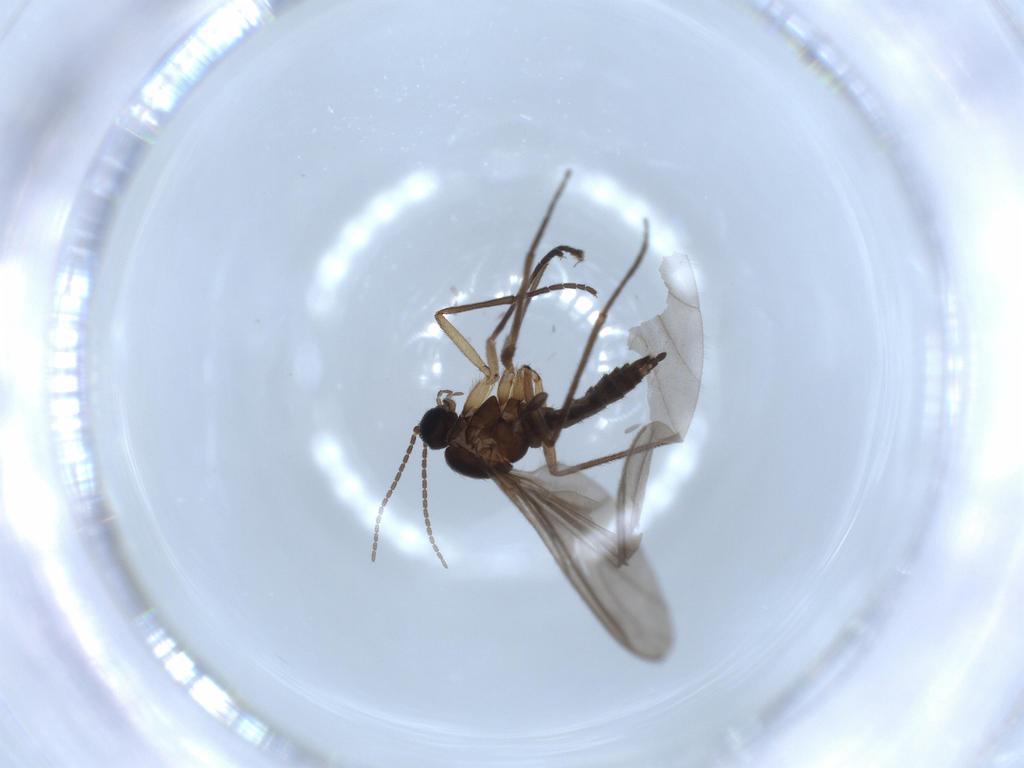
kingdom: Animalia
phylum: Arthropoda
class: Insecta
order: Diptera
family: Sciaridae
